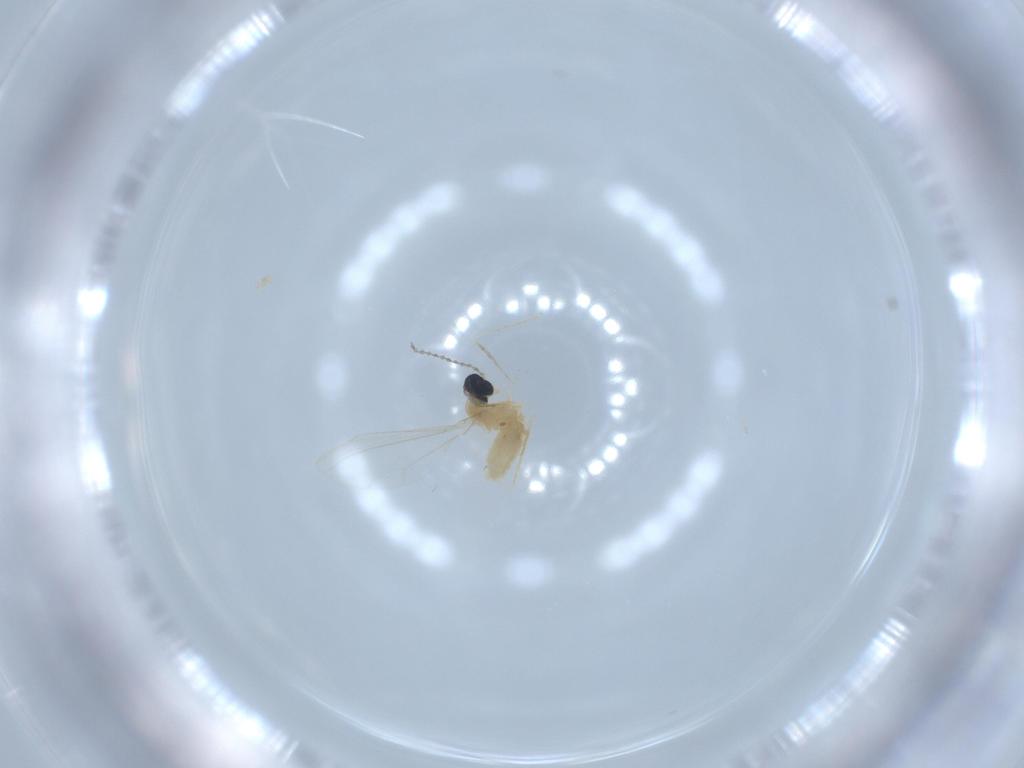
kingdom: Animalia
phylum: Arthropoda
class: Insecta
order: Diptera
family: Cecidomyiidae
